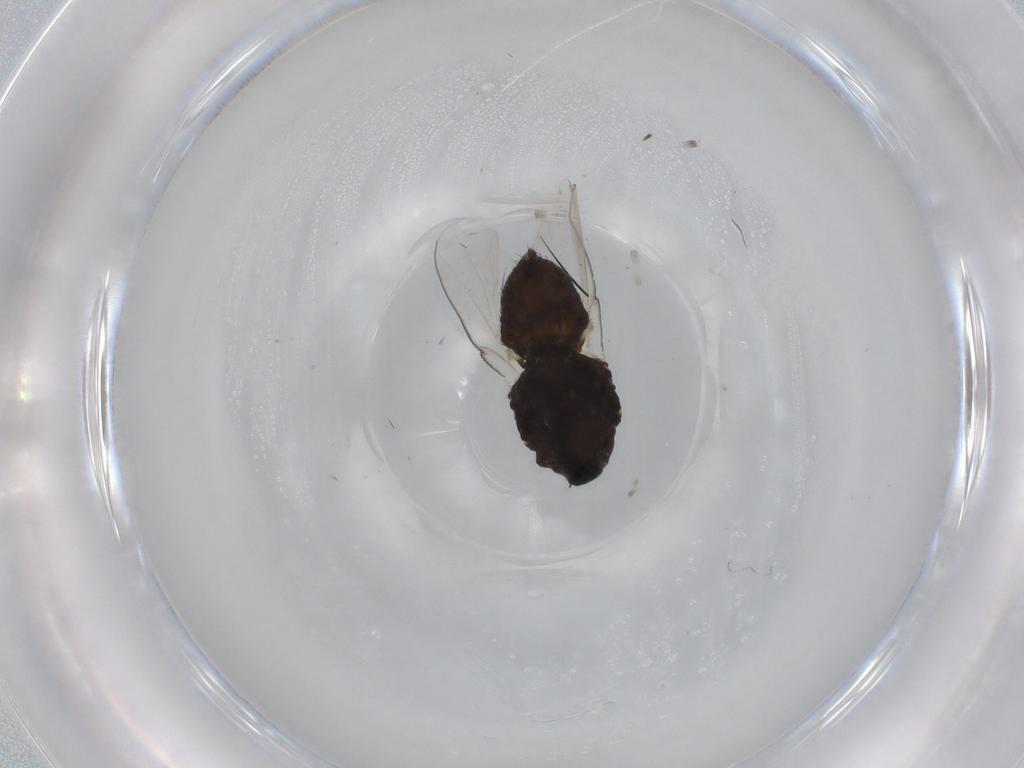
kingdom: Animalia
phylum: Arthropoda
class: Insecta
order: Diptera
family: Milichiidae
